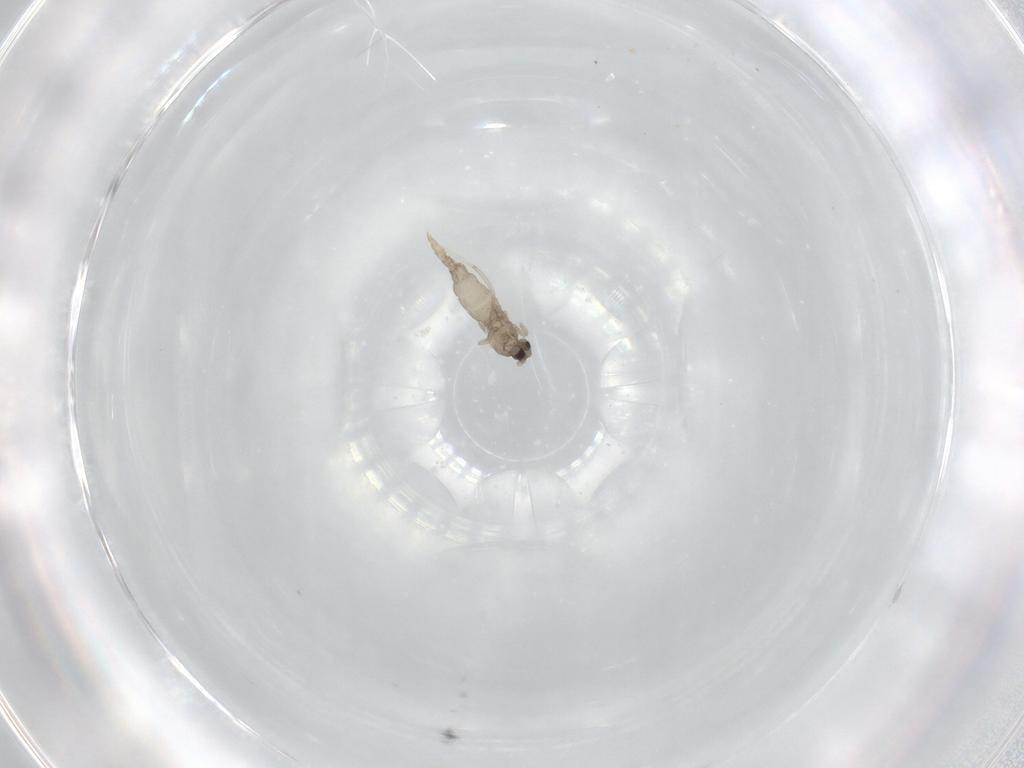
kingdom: Animalia
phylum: Arthropoda
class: Insecta
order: Diptera
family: Cecidomyiidae
